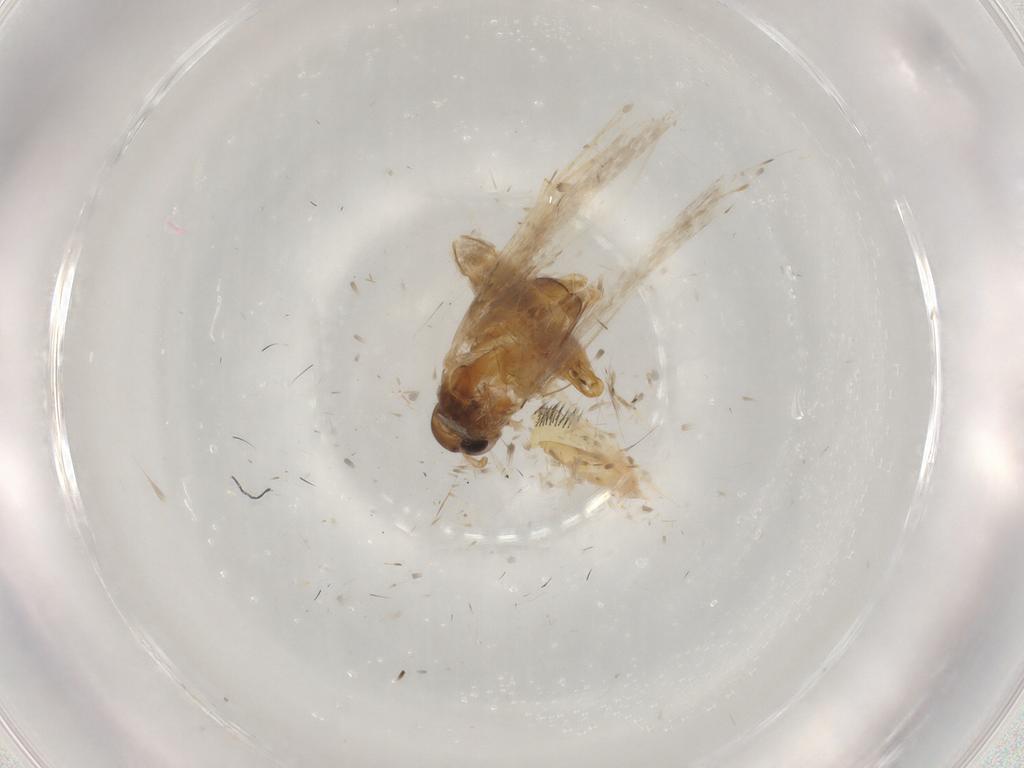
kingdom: Animalia
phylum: Arthropoda
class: Insecta
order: Lepidoptera
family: Plutellidae
